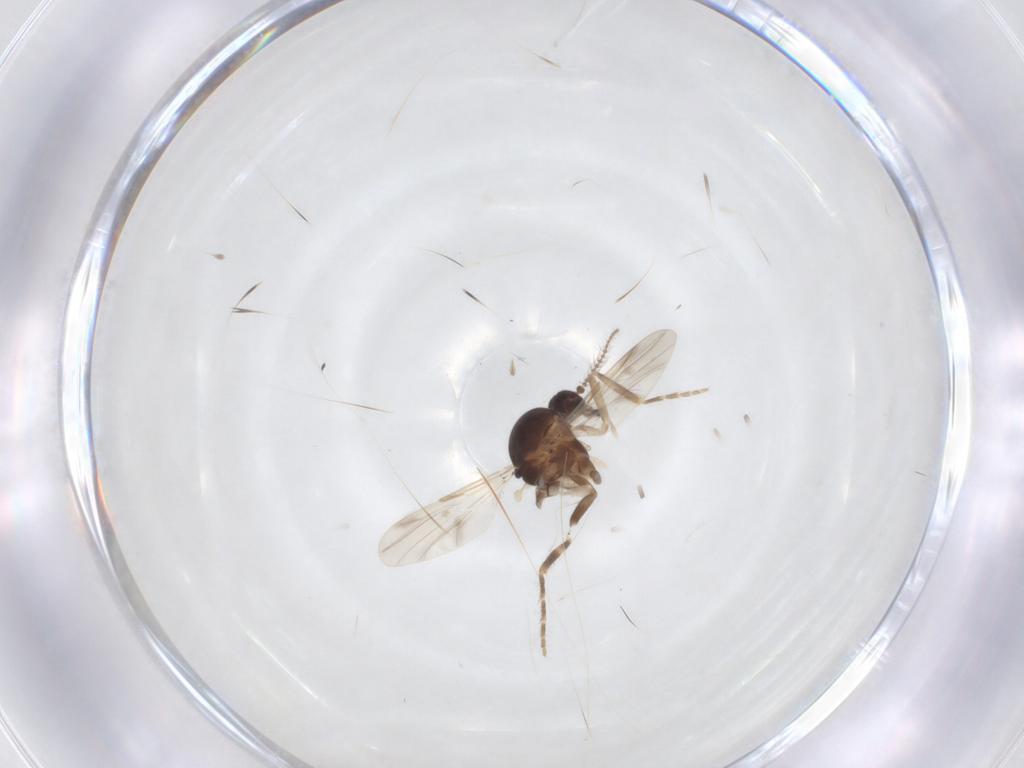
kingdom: Animalia
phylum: Arthropoda
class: Insecta
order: Diptera
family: Ceratopogonidae
